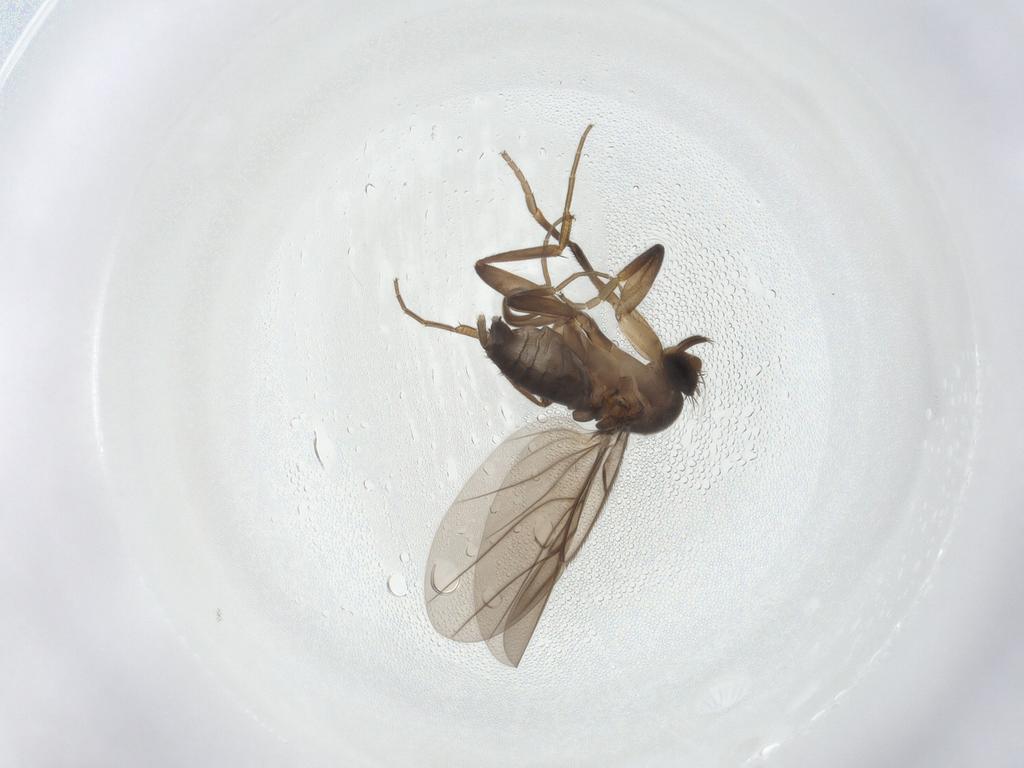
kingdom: Animalia
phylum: Arthropoda
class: Insecta
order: Diptera
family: Phoridae
